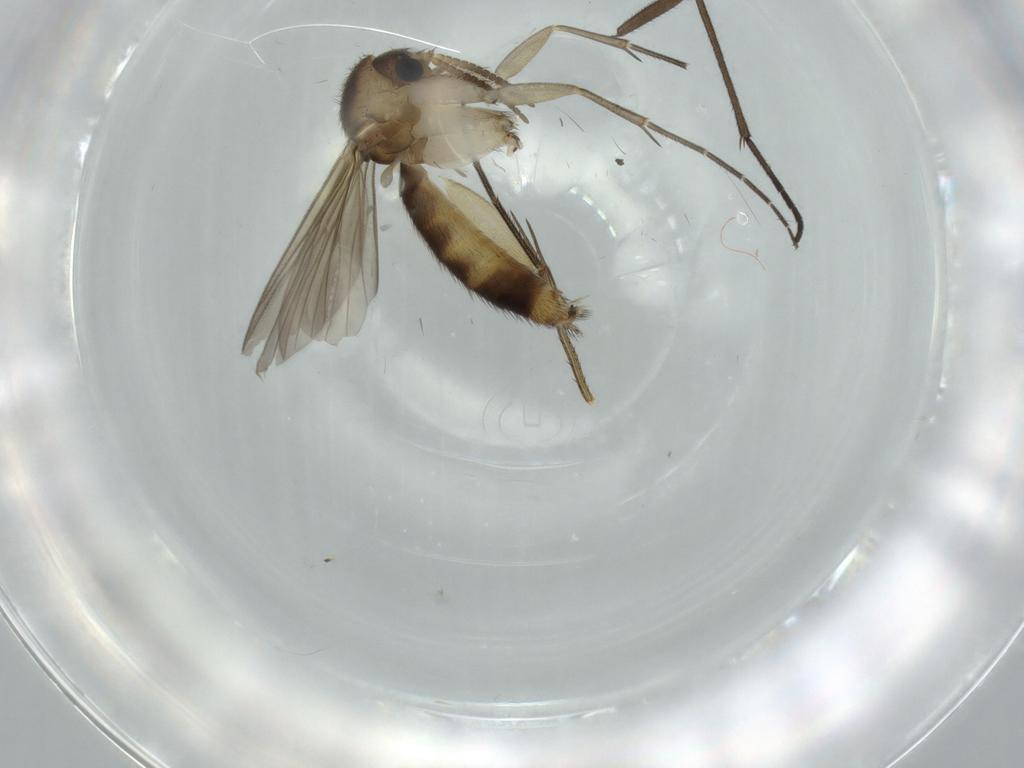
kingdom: Animalia
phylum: Arthropoda
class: Insecta
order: Diptera
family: Sciaridae
